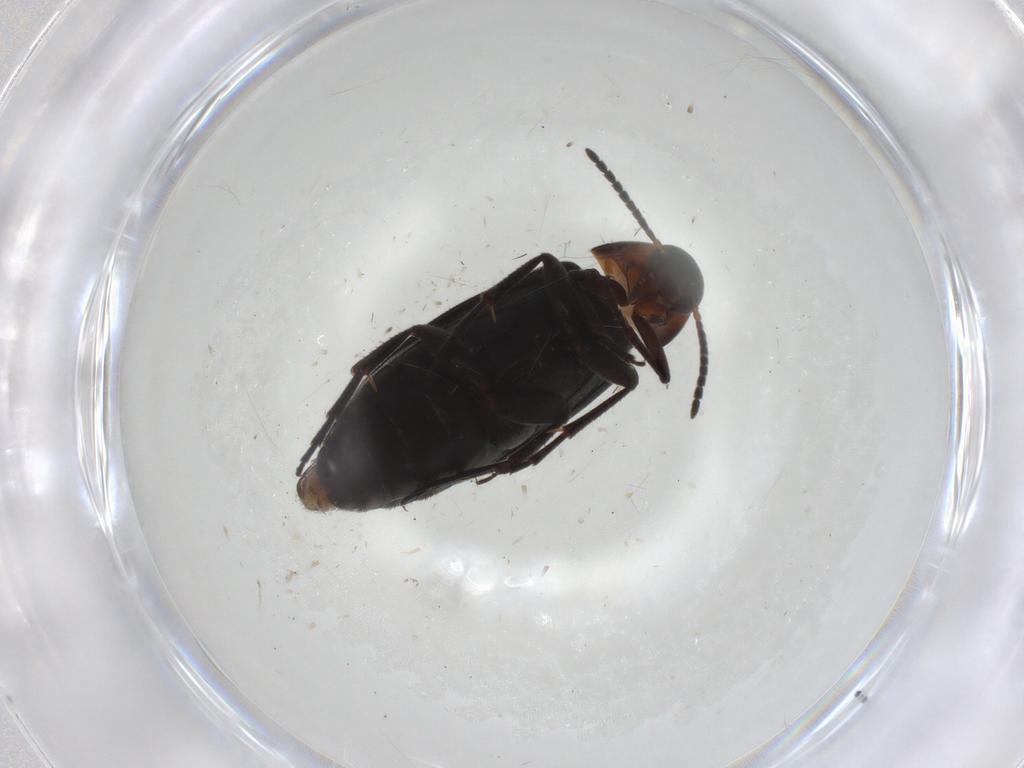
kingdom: Animalia
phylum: Arthropoda
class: Insecta
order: Coleoptera
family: Scraptiidae
